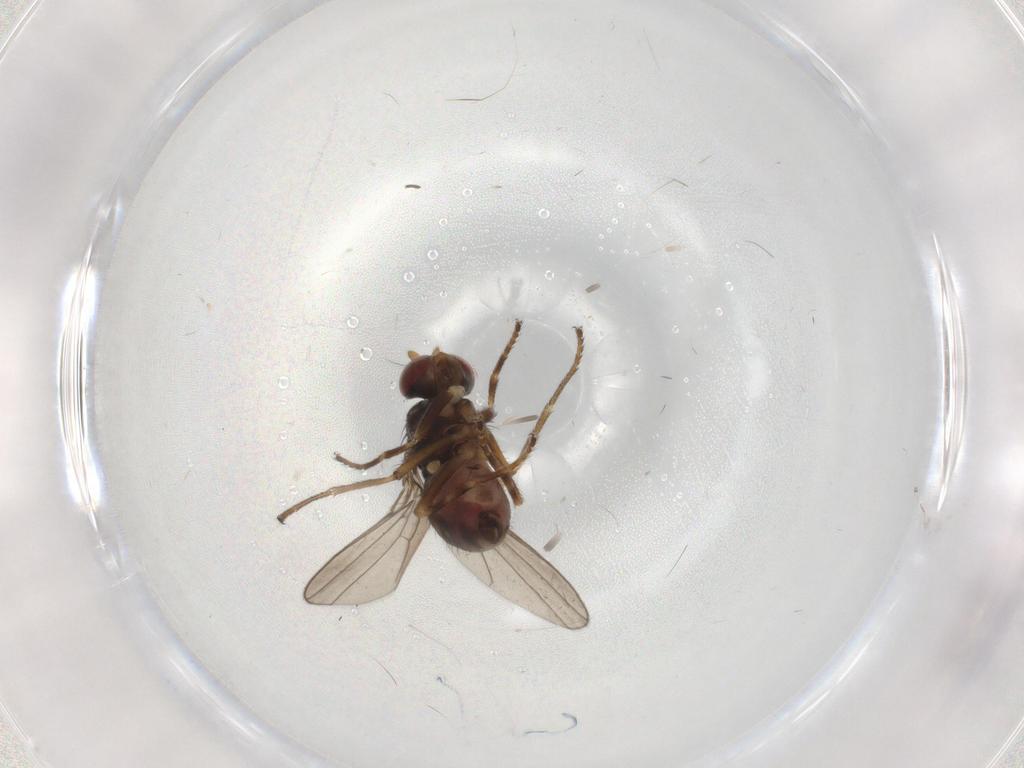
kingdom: Animalia
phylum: Arthropoda
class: Insecta
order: Diptera
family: Ephydridae
